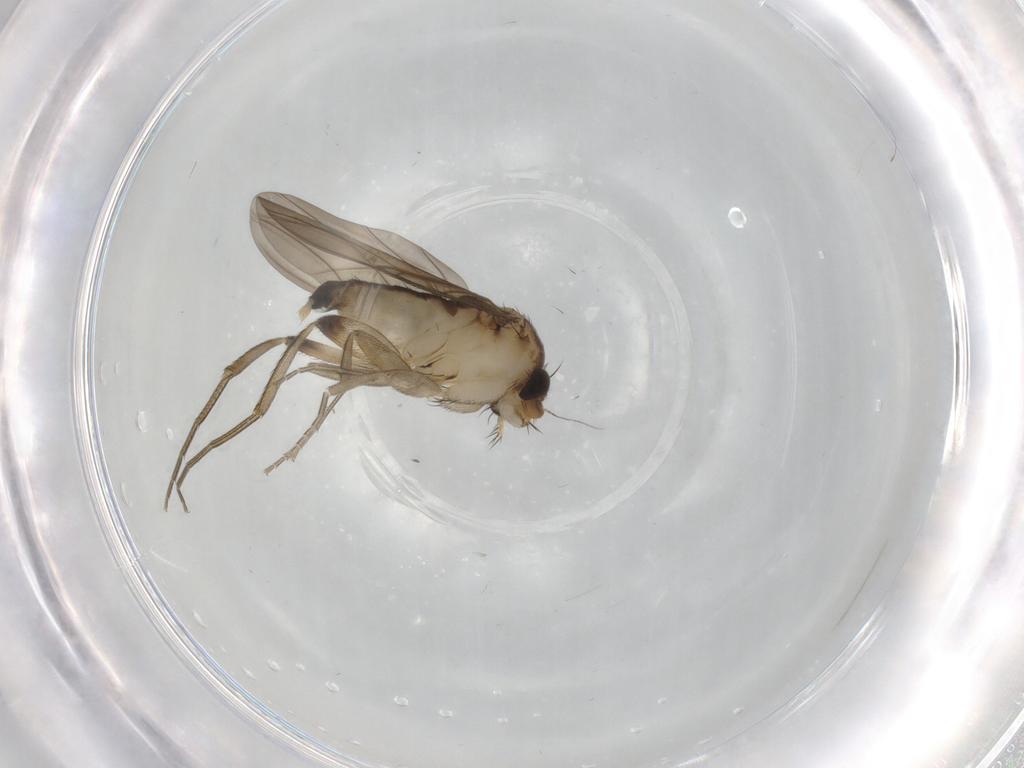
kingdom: Animalia
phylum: Arthropoda
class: Insecta
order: Diptera
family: Phoridae
